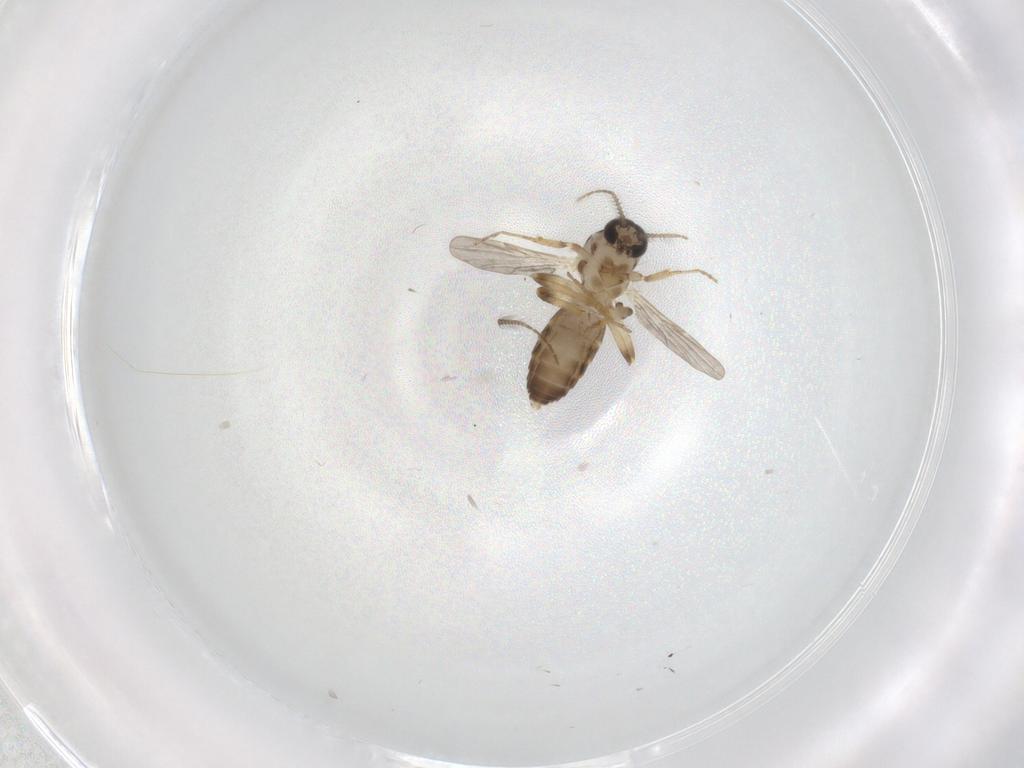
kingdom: Animalia
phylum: Arthropoda
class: Insecta
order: Diptera
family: Ceratopogonidae
